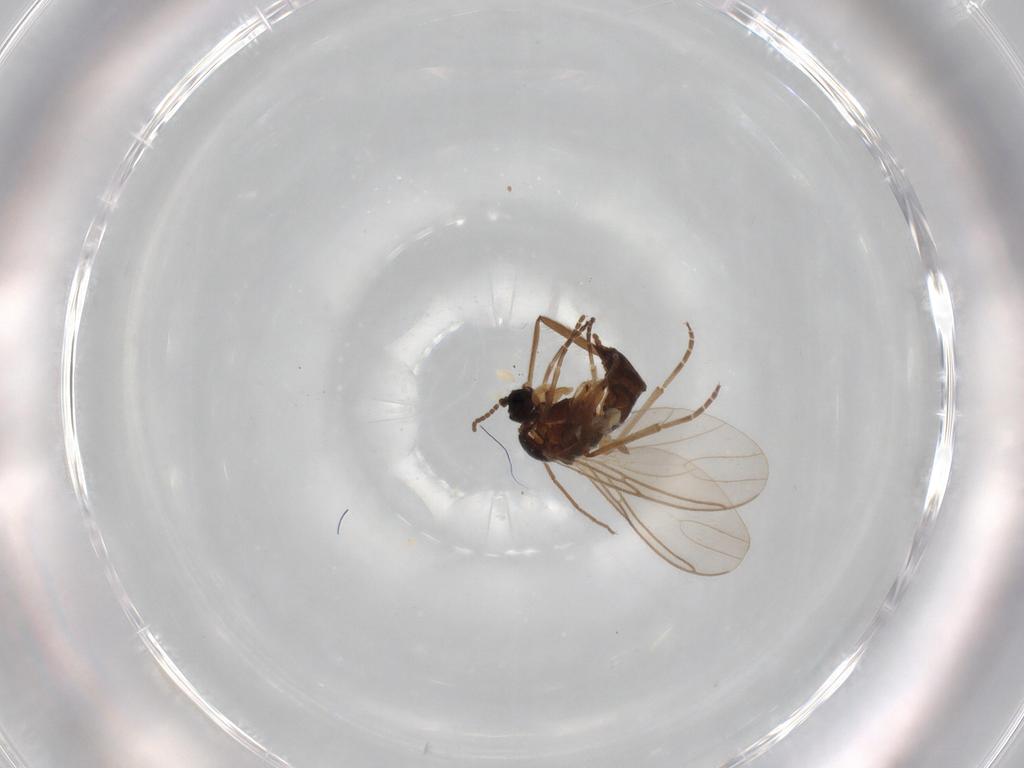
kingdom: Animalia
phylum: Arthropoda
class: Insecta
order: Diptera
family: Sciaridae
